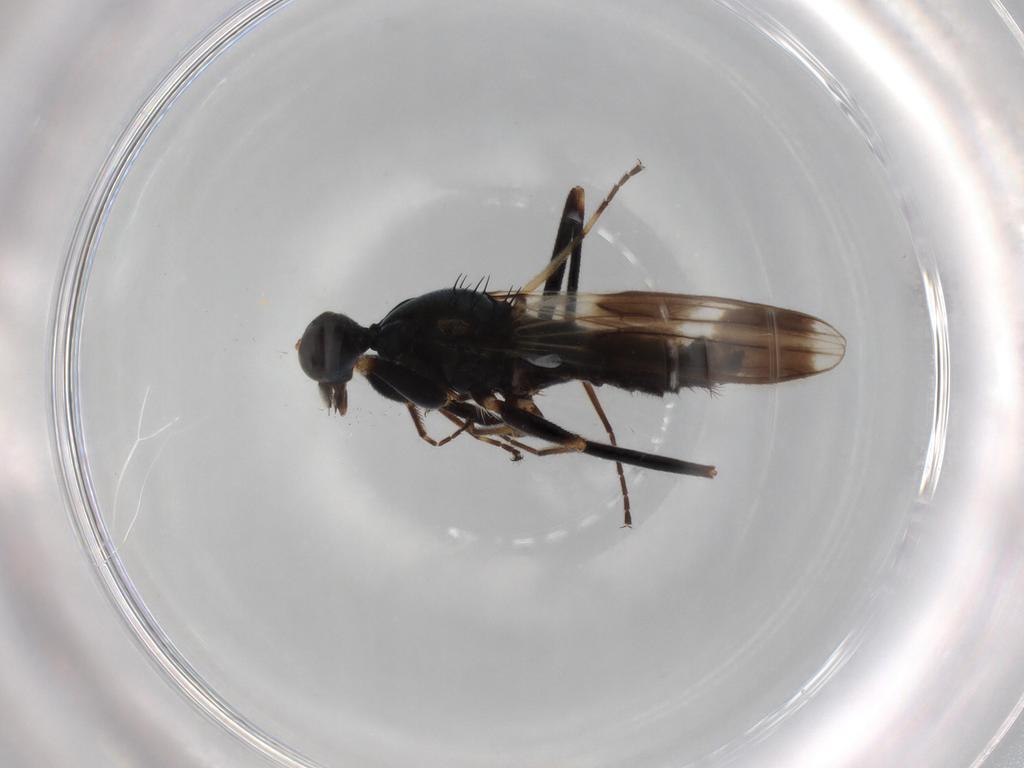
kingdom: Animalia
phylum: Arthropoda
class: Insecta
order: Diptera
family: Hybotidae
